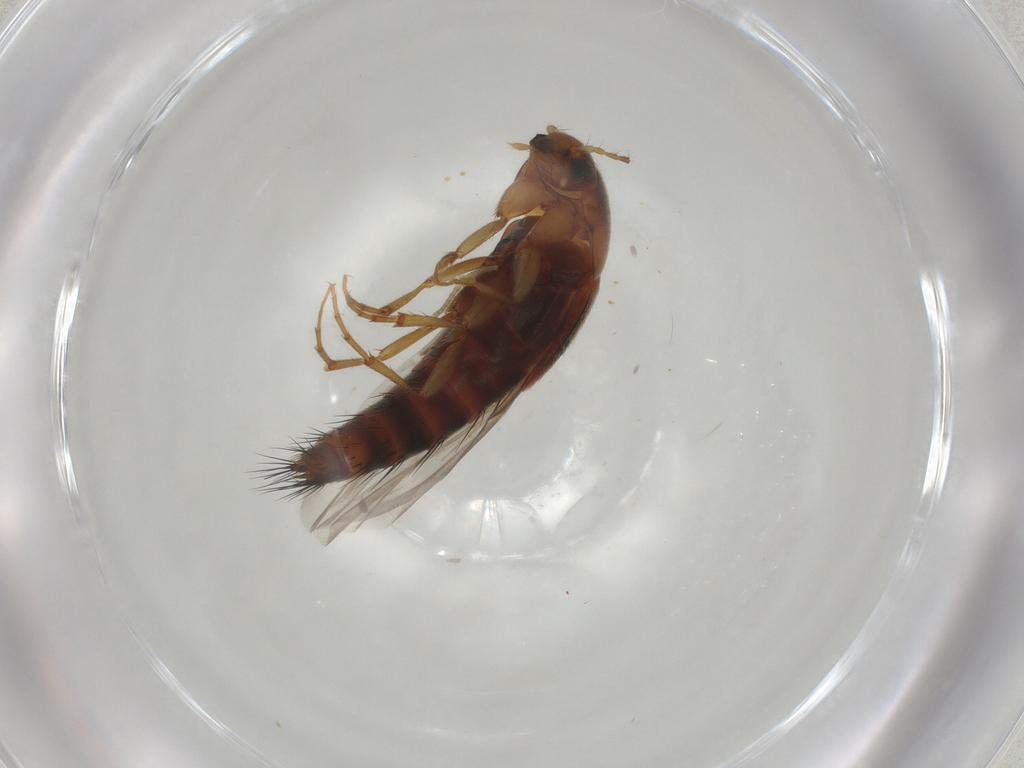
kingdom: Animalia
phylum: Arthropoda
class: Insecta
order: Coleoptera
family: Staphylinidae
